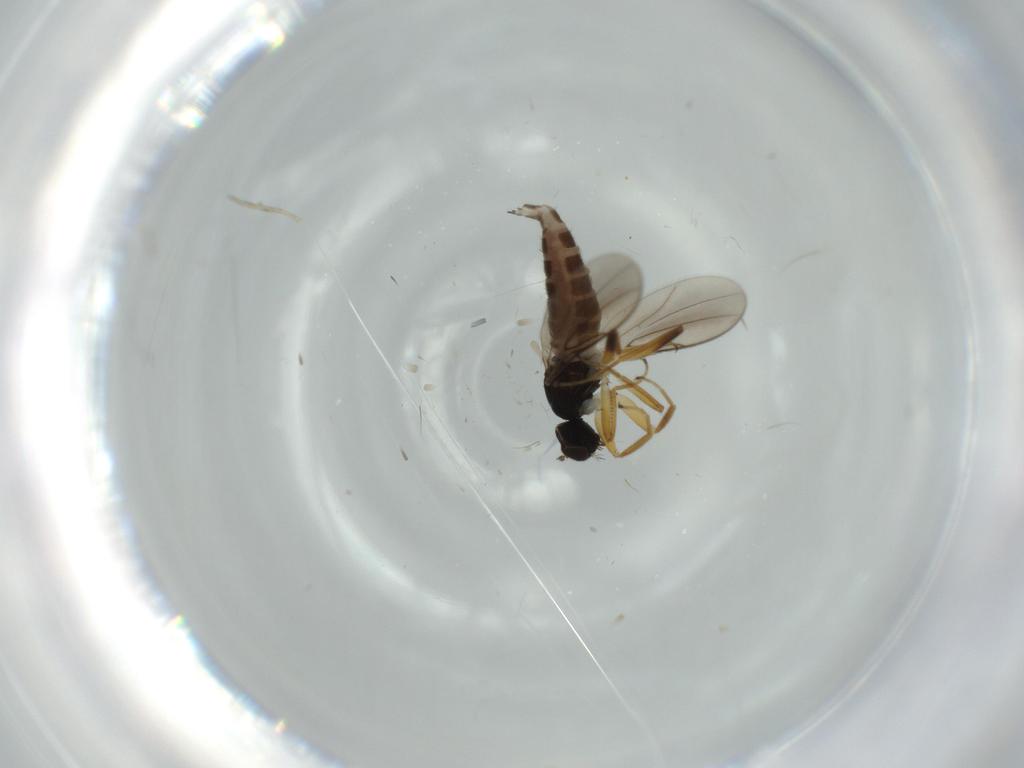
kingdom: Animalia
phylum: Arthropoda
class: Insecta
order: Diptera
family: Hybotidae
